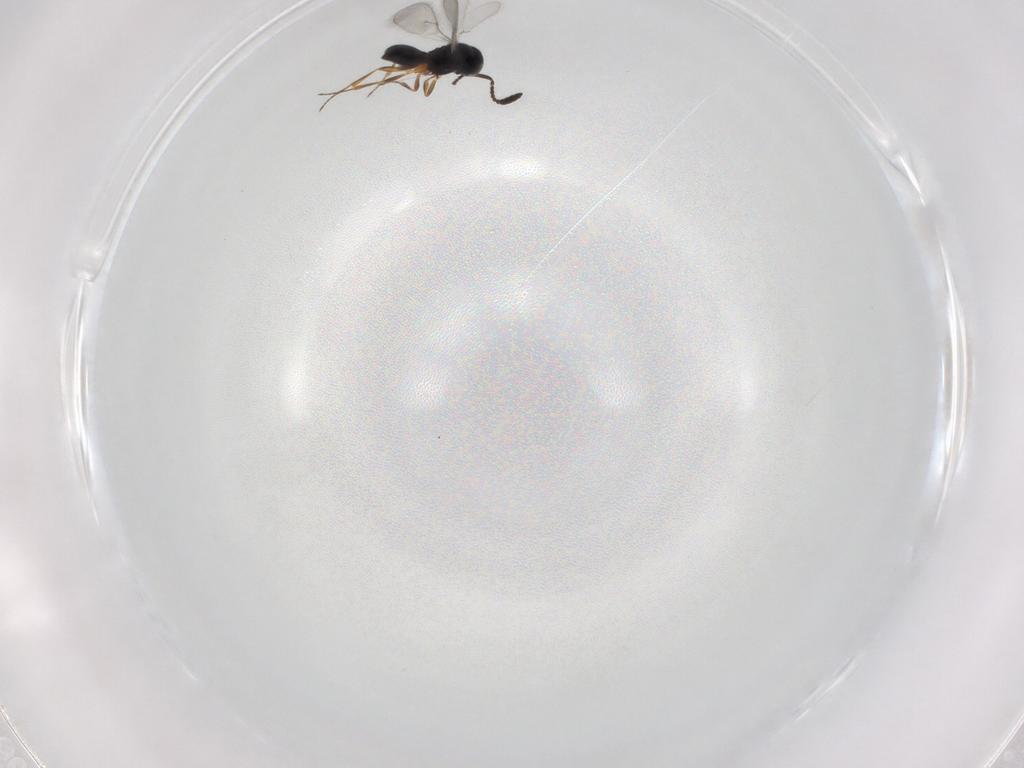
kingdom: Animalia
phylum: Arthropoda
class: Insecta
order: Hymenoptera
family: Scelionidae
